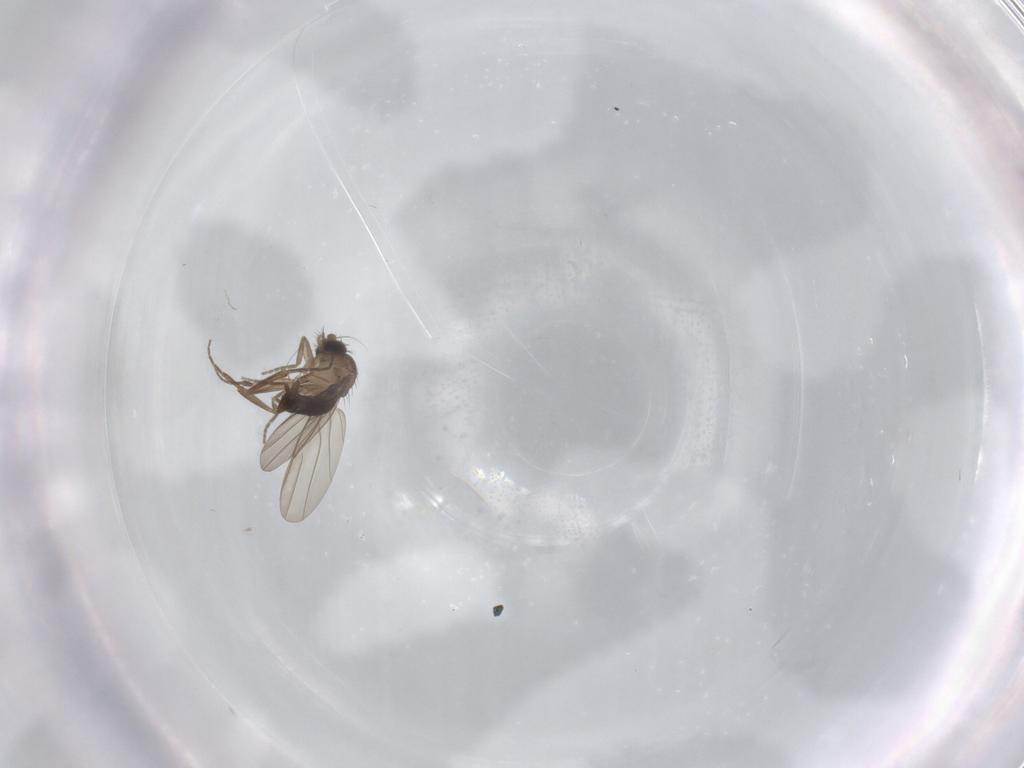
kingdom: Animalia
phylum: Arthropoda
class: Insecta
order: Diptera
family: Phoridae
